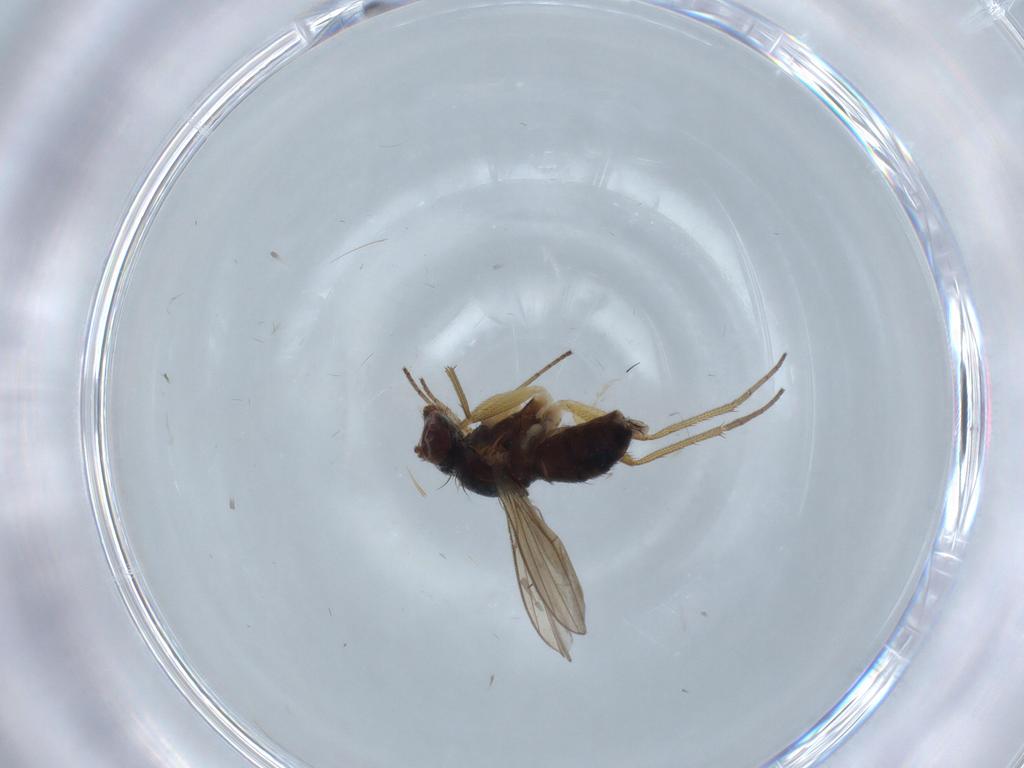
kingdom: Animalia
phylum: Arthropoda
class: Insecta
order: Diptera
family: Dolichopodidae
